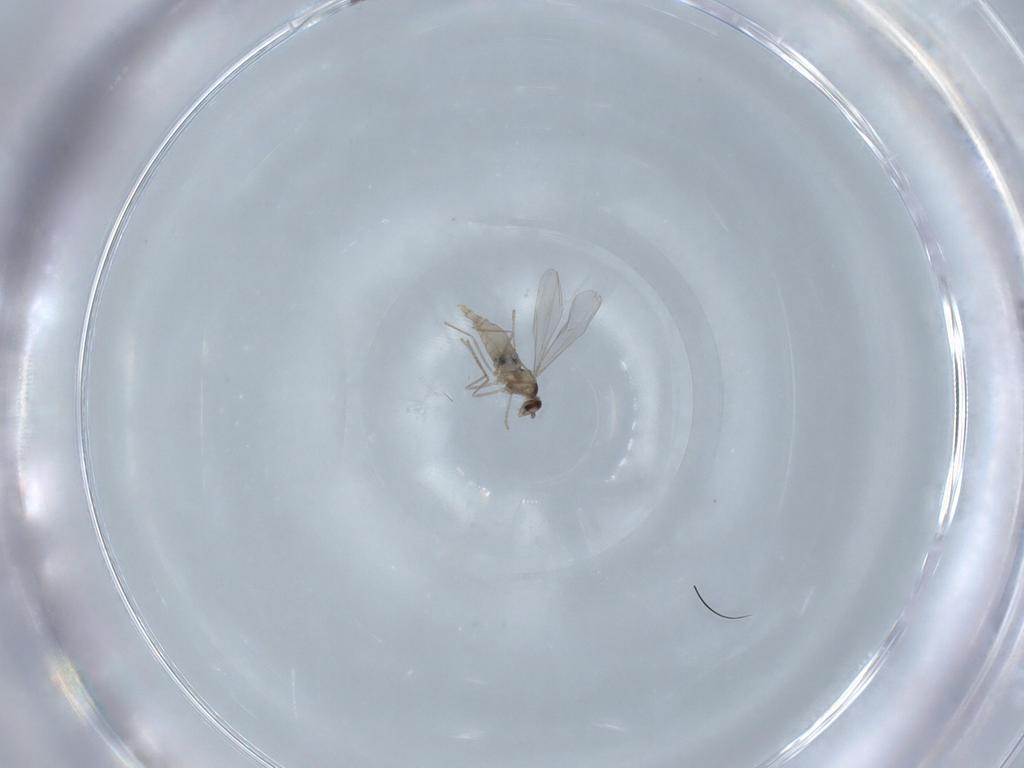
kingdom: Animalia
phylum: Arthropoda
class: Insecta
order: Diptera
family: Cecidomyiidae
